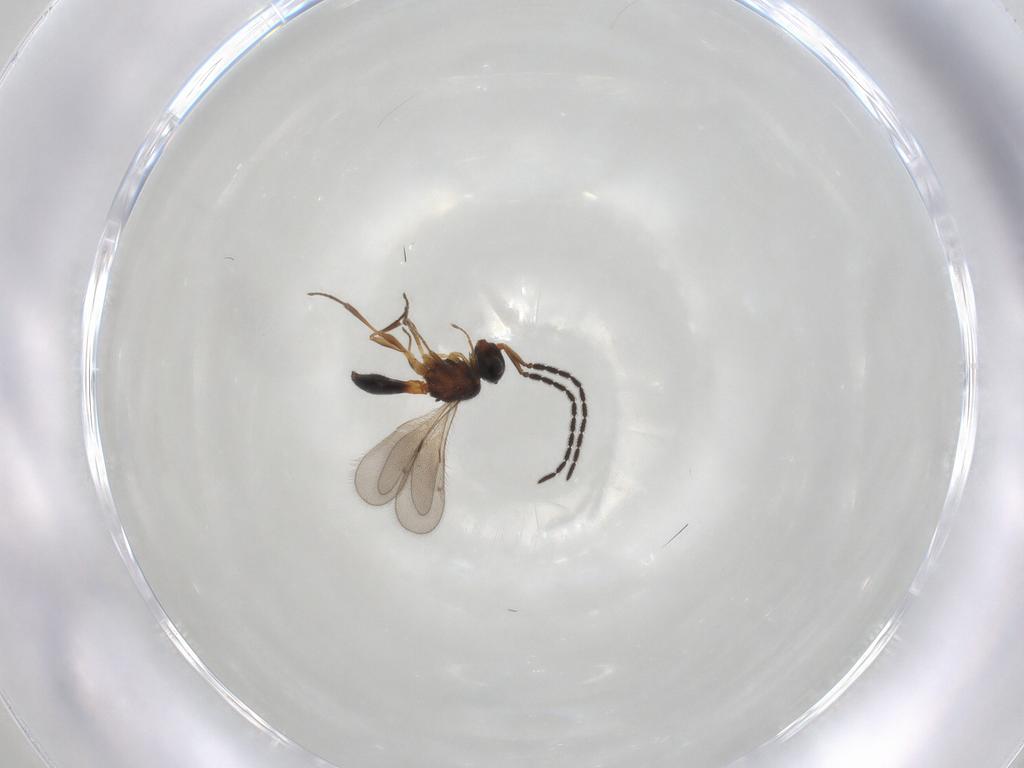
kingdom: Animalia
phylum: Arthropoda
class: Insecta
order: Hymenoptera
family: Scelionidae
